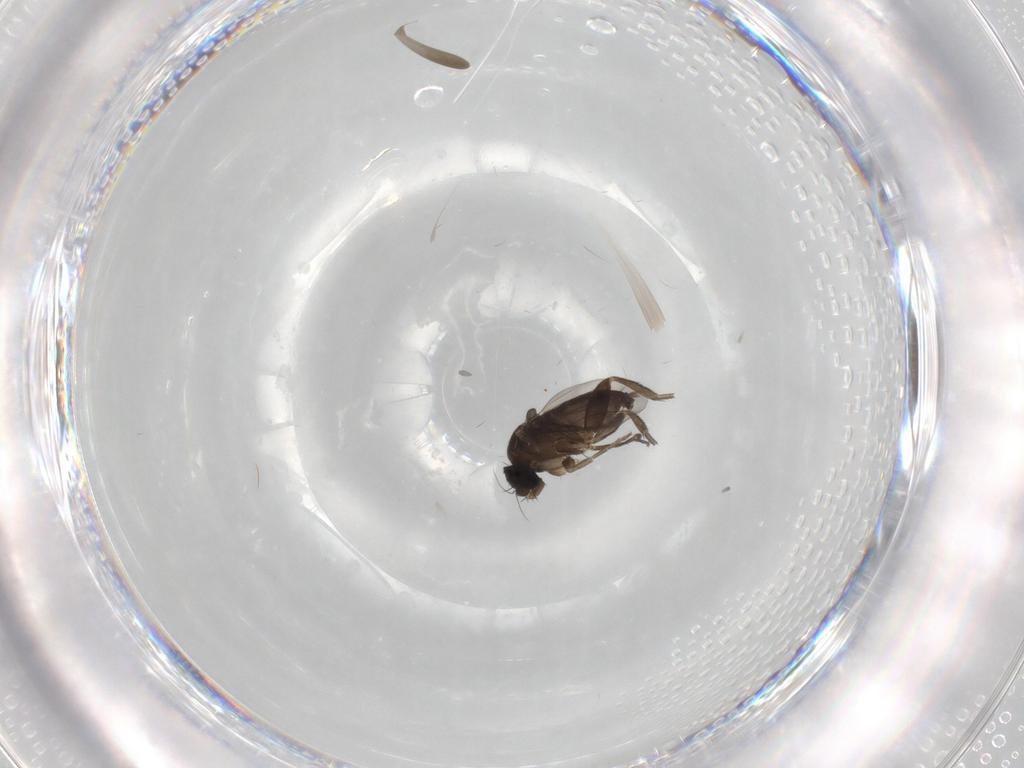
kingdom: Animalia
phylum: Arthropoda
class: Insecta
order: Diptera
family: Phoridae
